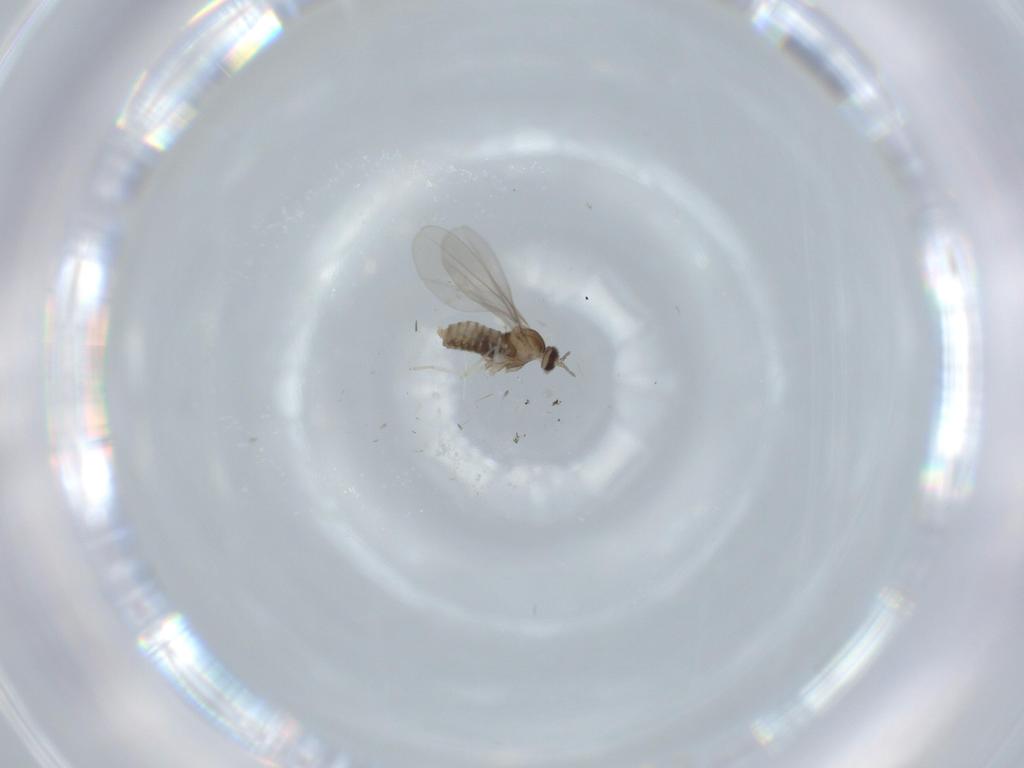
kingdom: Animalia
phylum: Arthropoda
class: Insecta
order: Diptera
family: Cecidomyiidae
